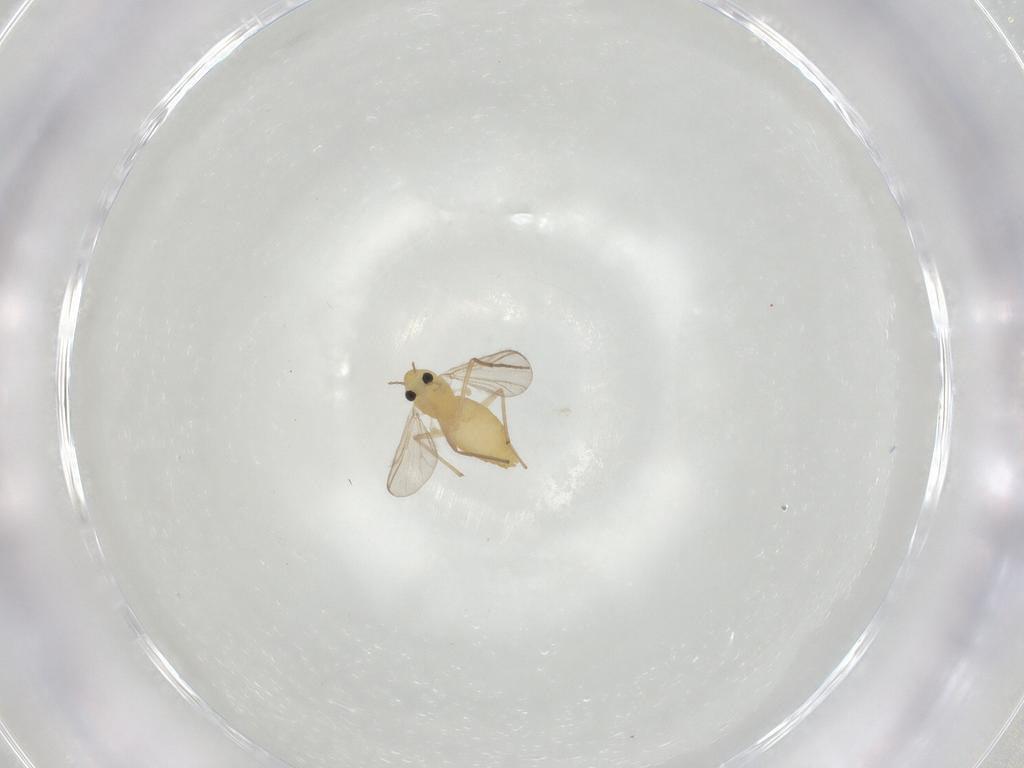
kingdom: Animalia
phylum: Arthropoda
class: Insecta
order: Diptera
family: Chironomidae
